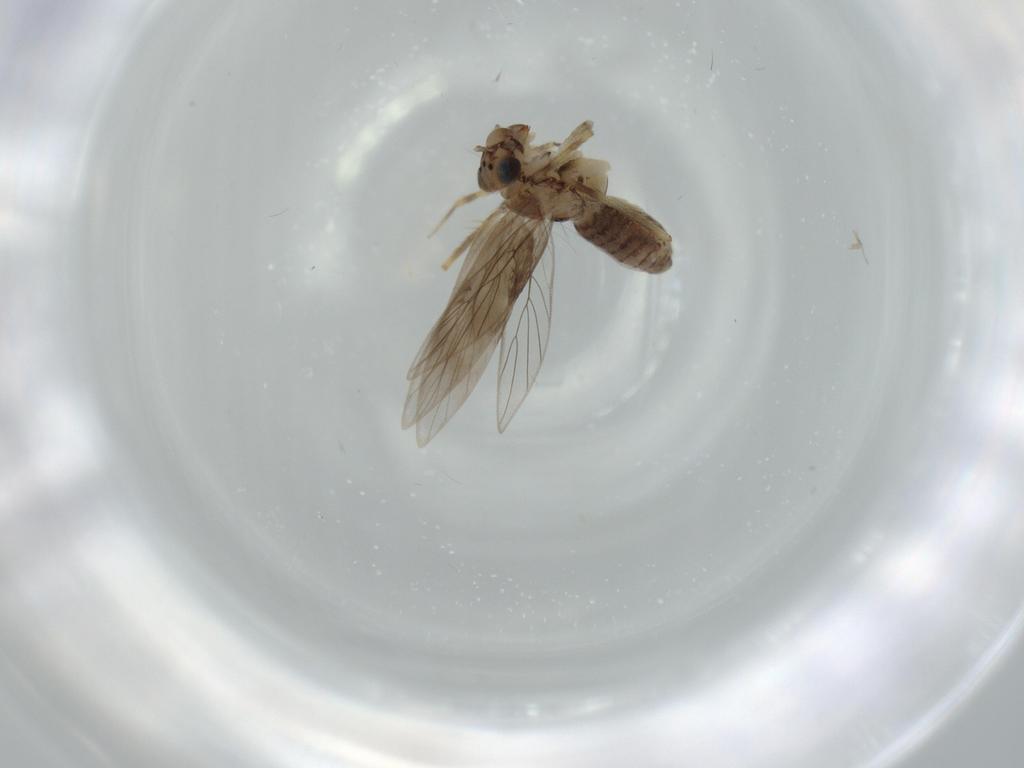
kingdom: Animalia
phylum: Arthropoda
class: Insecta
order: Psocodea
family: Lepidopsocidae
